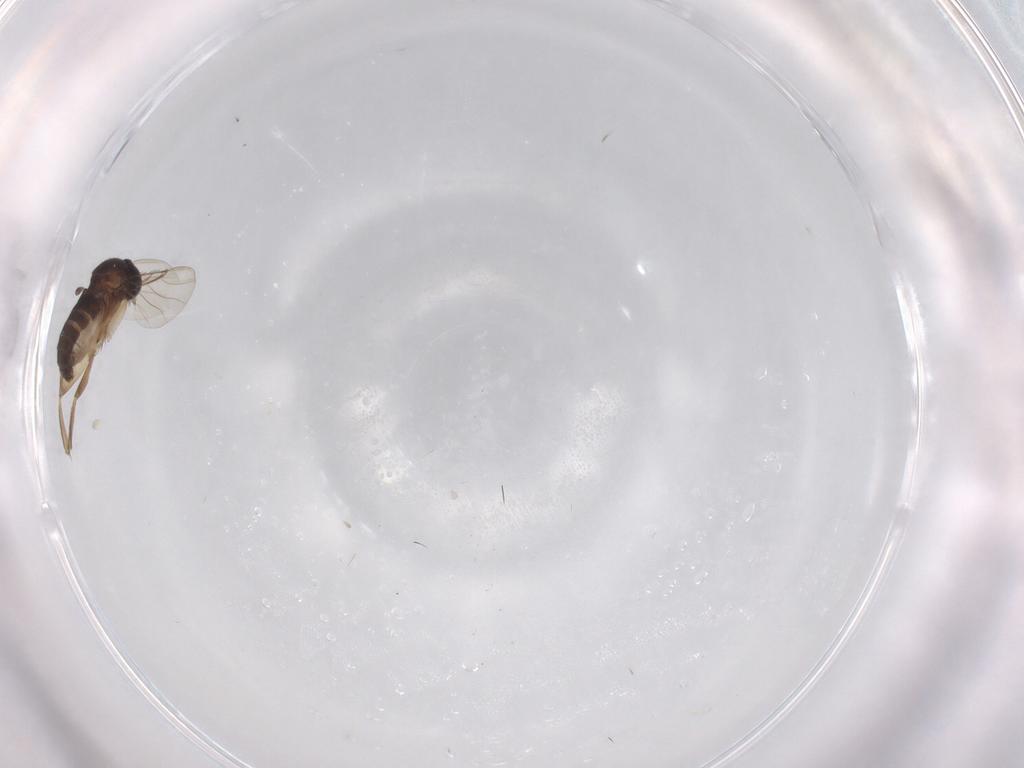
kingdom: Animalia
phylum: Arthropoda
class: Insecta
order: Diptera
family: Phoridae
